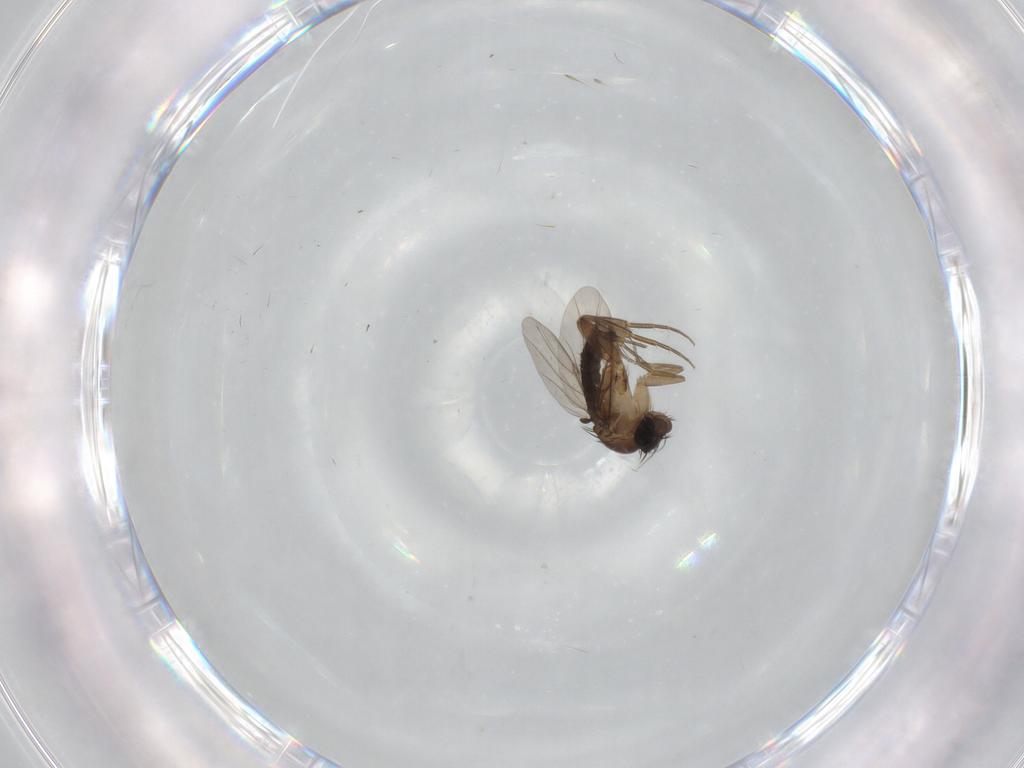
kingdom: Animalia
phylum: Arthropoda
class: Insecta
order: Diptera
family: Phoridae
